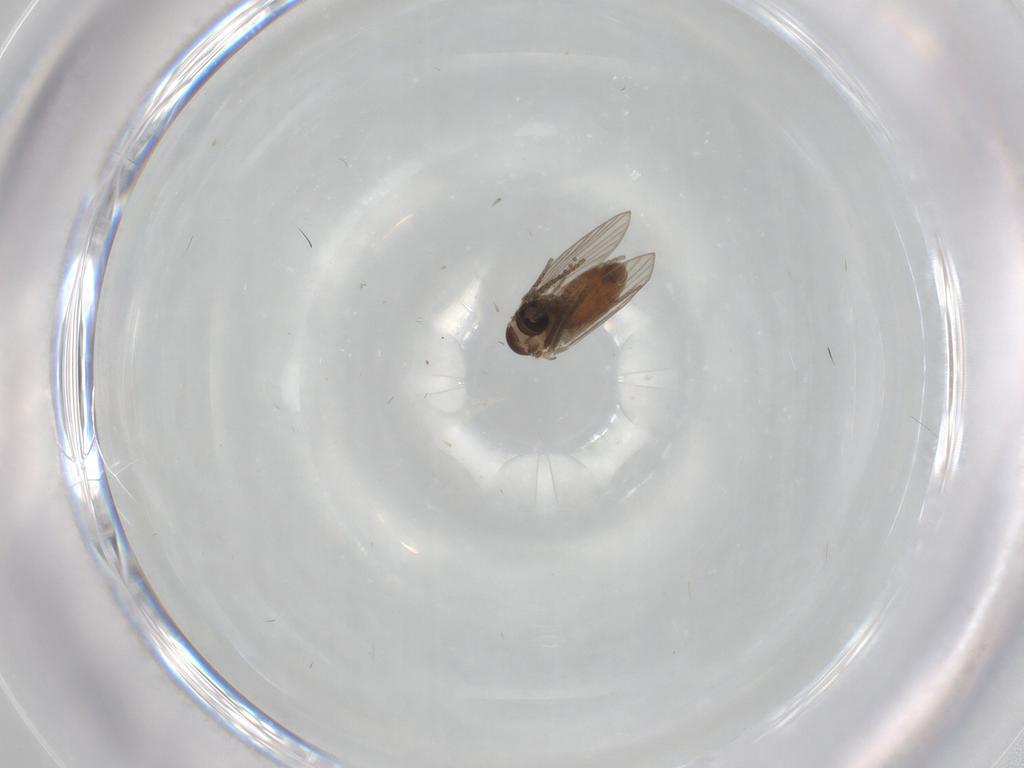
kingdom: Animalia
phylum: Arthropoda
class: Insecta
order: Diptera
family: Psychodidae
